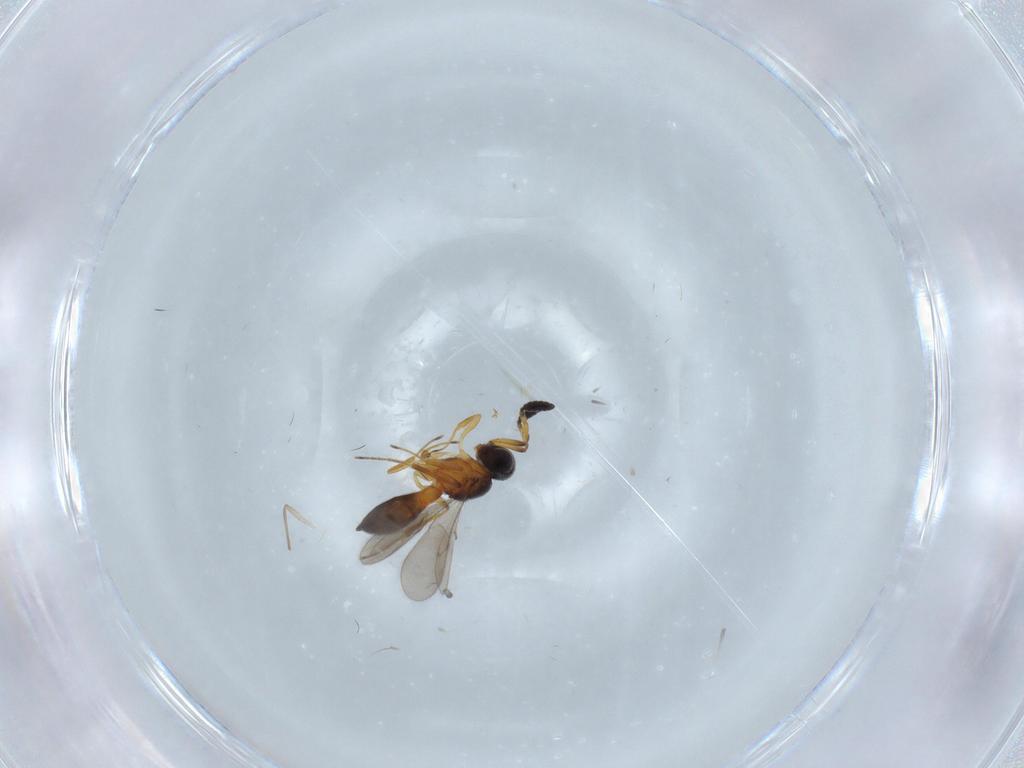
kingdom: Animalia
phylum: Arthropoda
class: Insecta
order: Hymenoptera
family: Scelionidae
